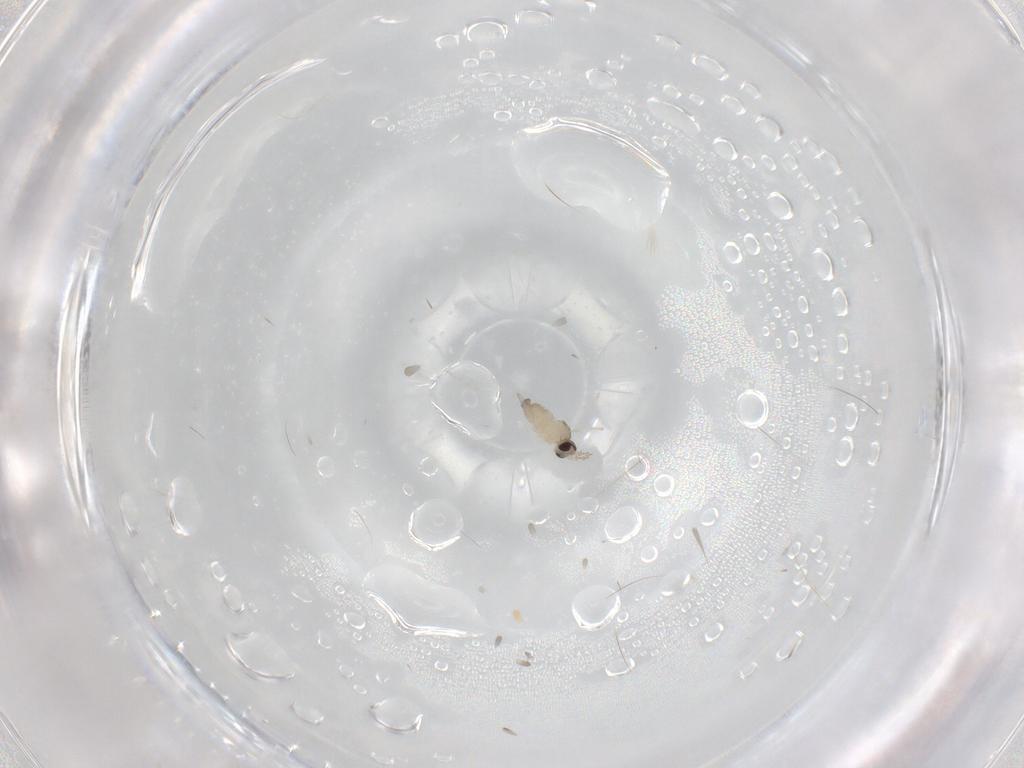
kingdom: Animalia
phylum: Arthropoda
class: Insecta
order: Diptera
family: Cecidomyiidae
